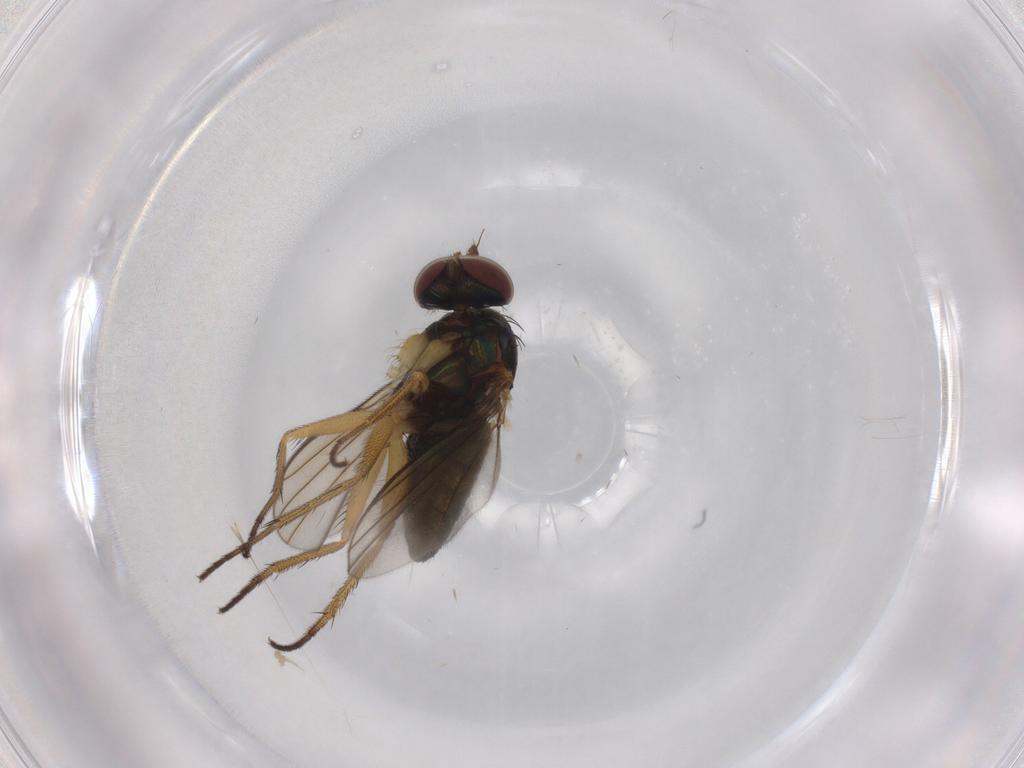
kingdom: Animalia
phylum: Arthropoda
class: Insecta
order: Diptera
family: Dolichopodidae
